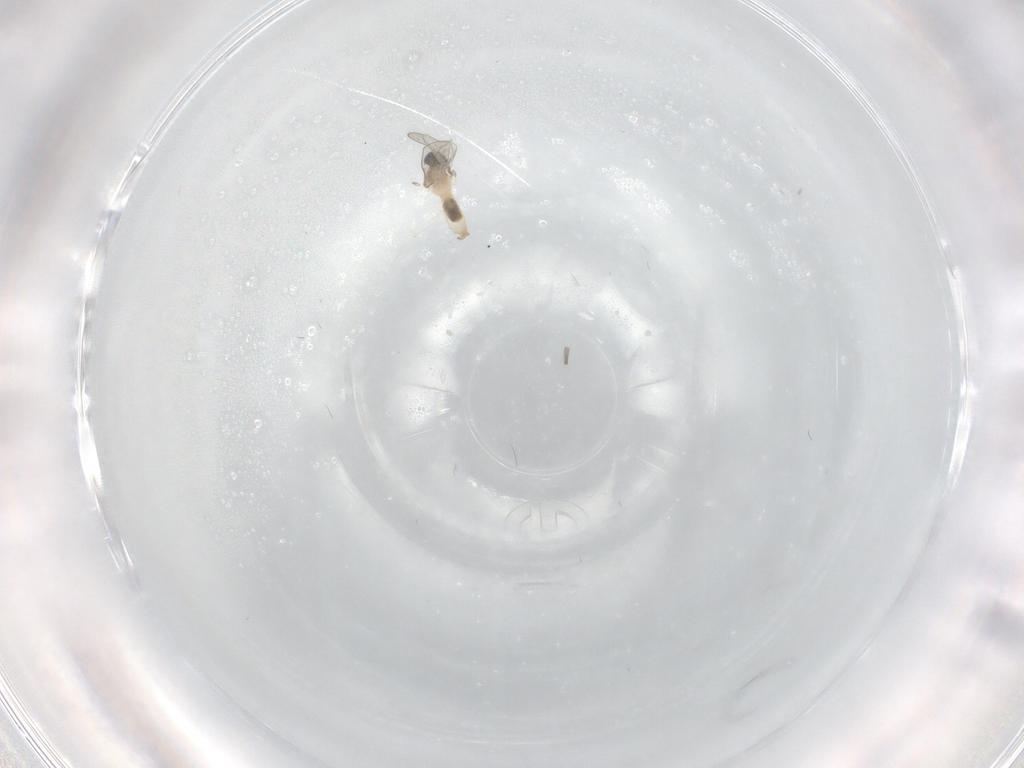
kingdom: Animalia
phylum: Arthropoda
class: Insecta
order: Diptera
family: Cecidomyiidae
